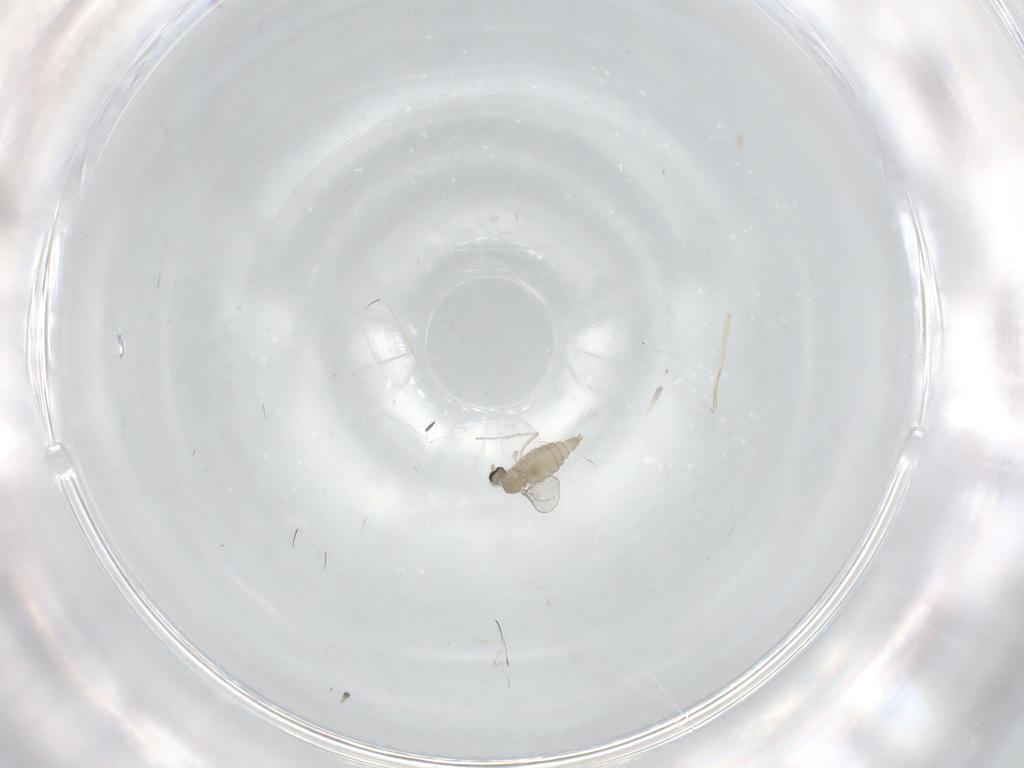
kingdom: Animalia
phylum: Arthropoda
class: Insecta
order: Diptera
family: Cecidomyiidae
